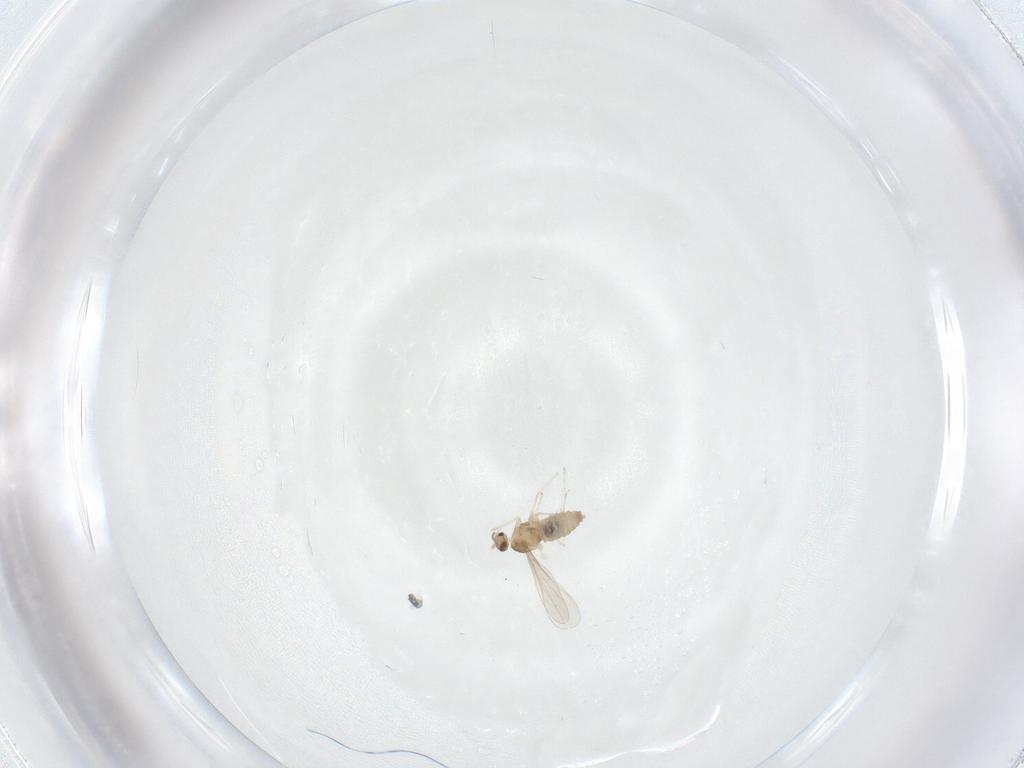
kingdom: Animalia
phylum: Arthropoda
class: Insecta
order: Diptera
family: Cecidomyiidae
